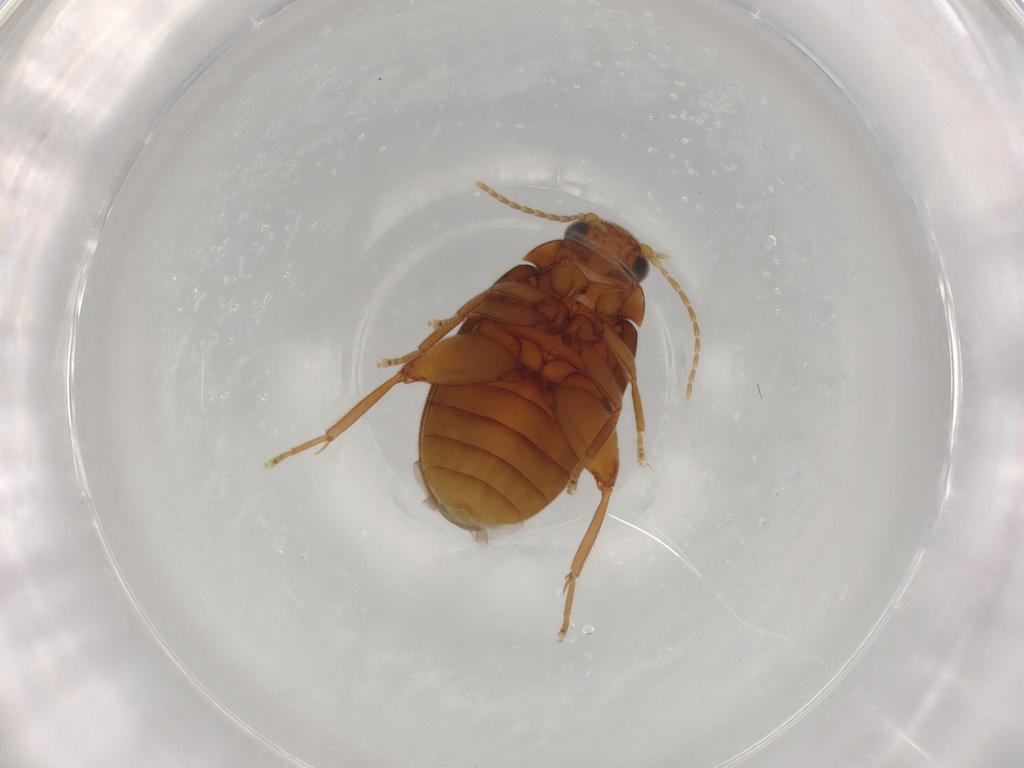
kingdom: Animalia
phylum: Arthropoda
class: Insecta
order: Coleoptera
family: Scirtidae
